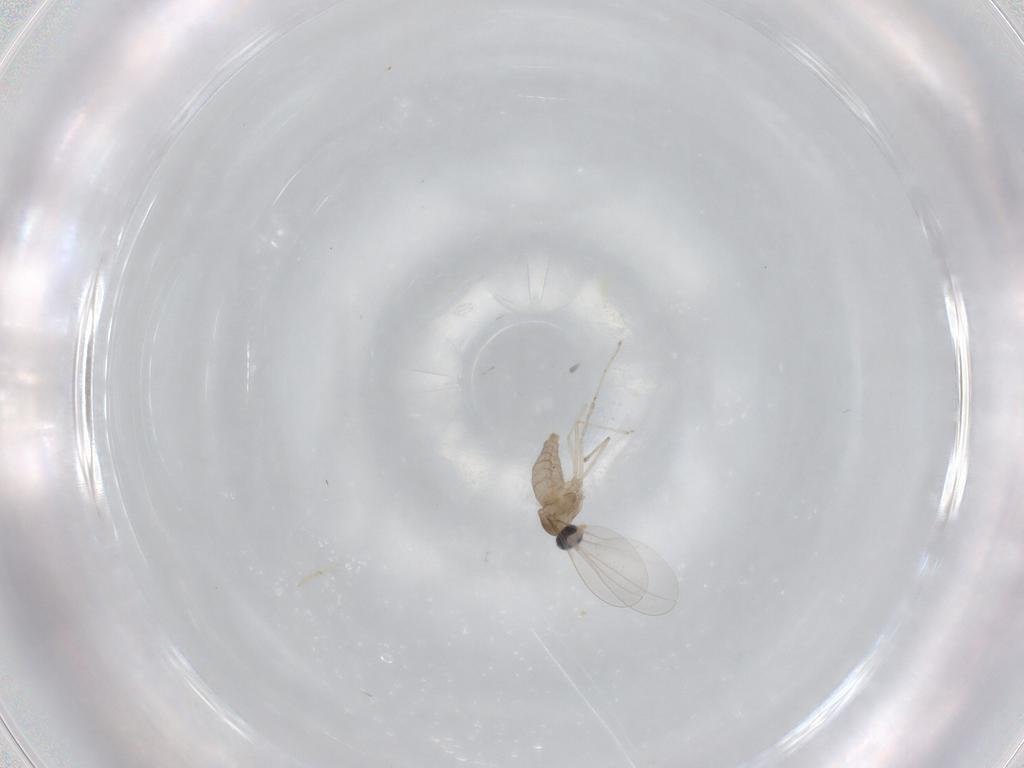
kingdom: Animalia
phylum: Arthropoda
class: Insecta
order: Diptera
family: Cecidomyiidae
